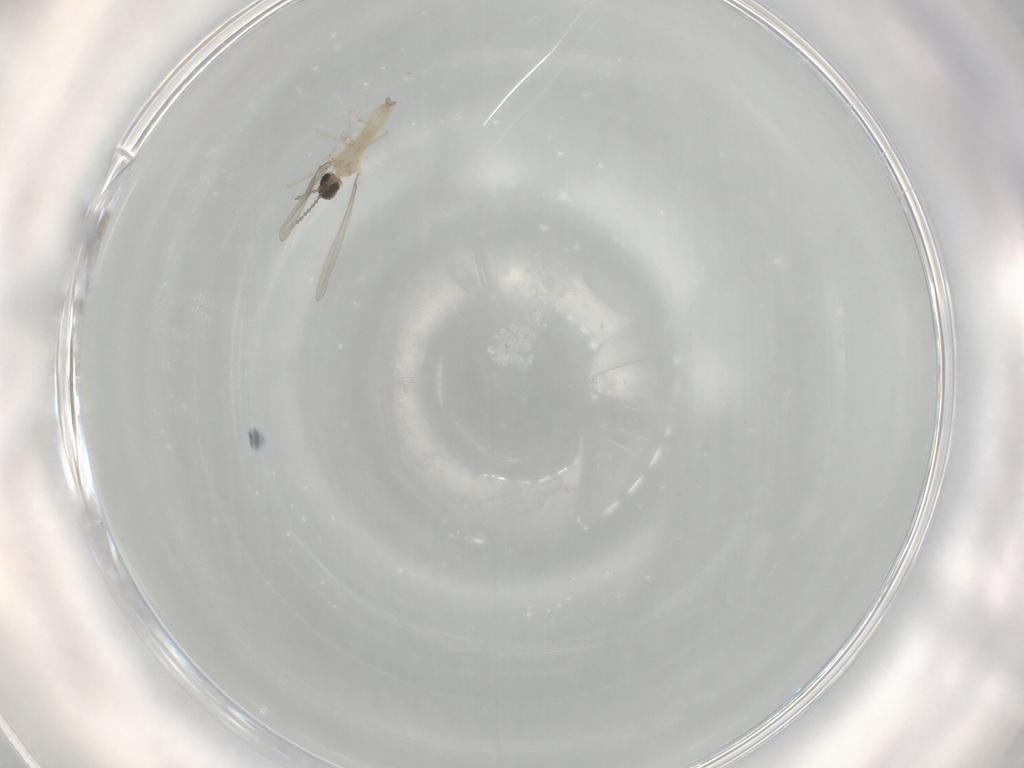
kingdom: Animalia
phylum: Arthropoda
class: Insecta
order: Diptera
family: Cecidomyiidae
